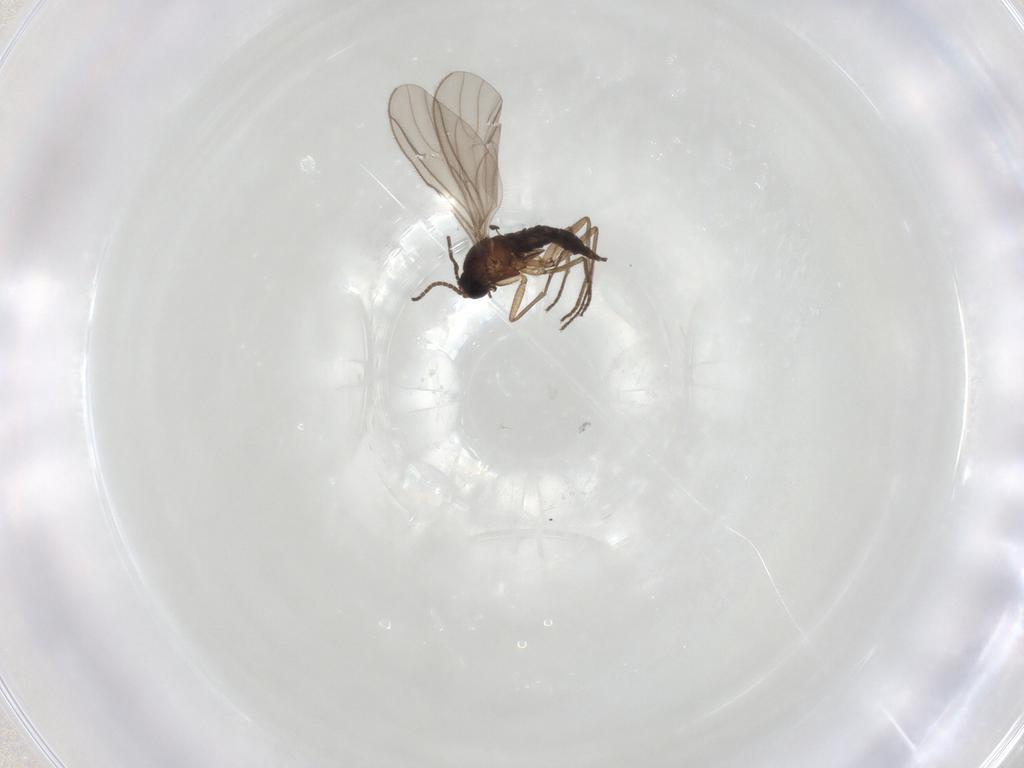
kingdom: Animalia
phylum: Arthropoda
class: Insecta
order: Diptera
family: Sciaridae
